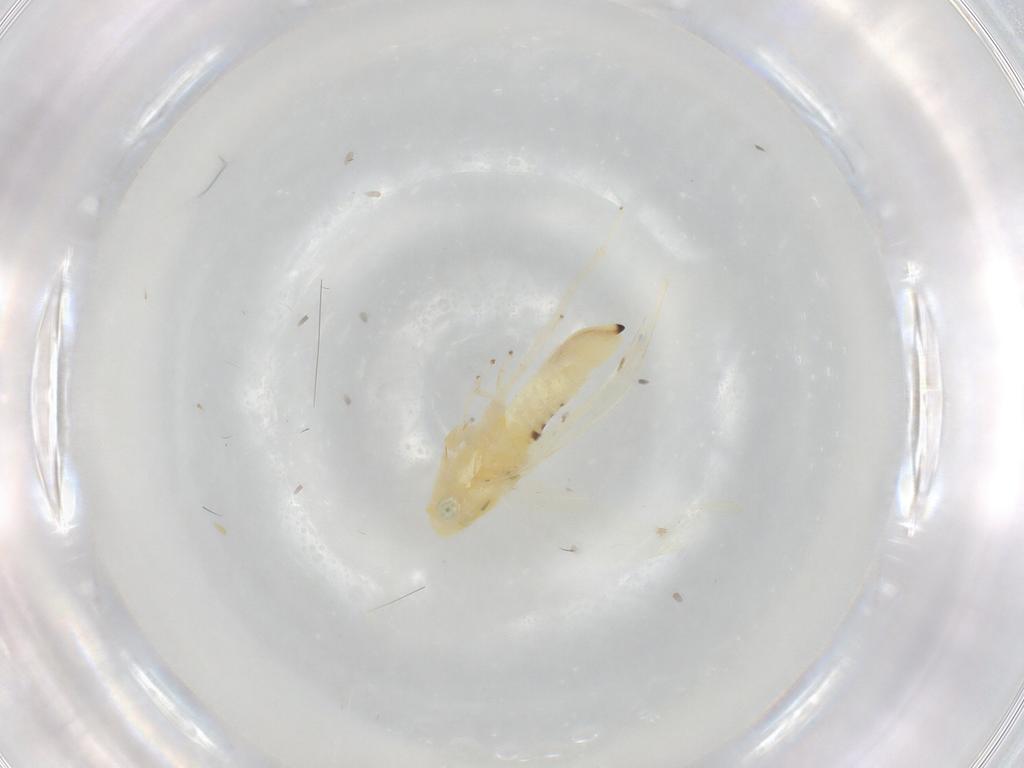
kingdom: Animalia
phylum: Arthropoda
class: Insecta
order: Hemiptera
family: Cicadellidae
